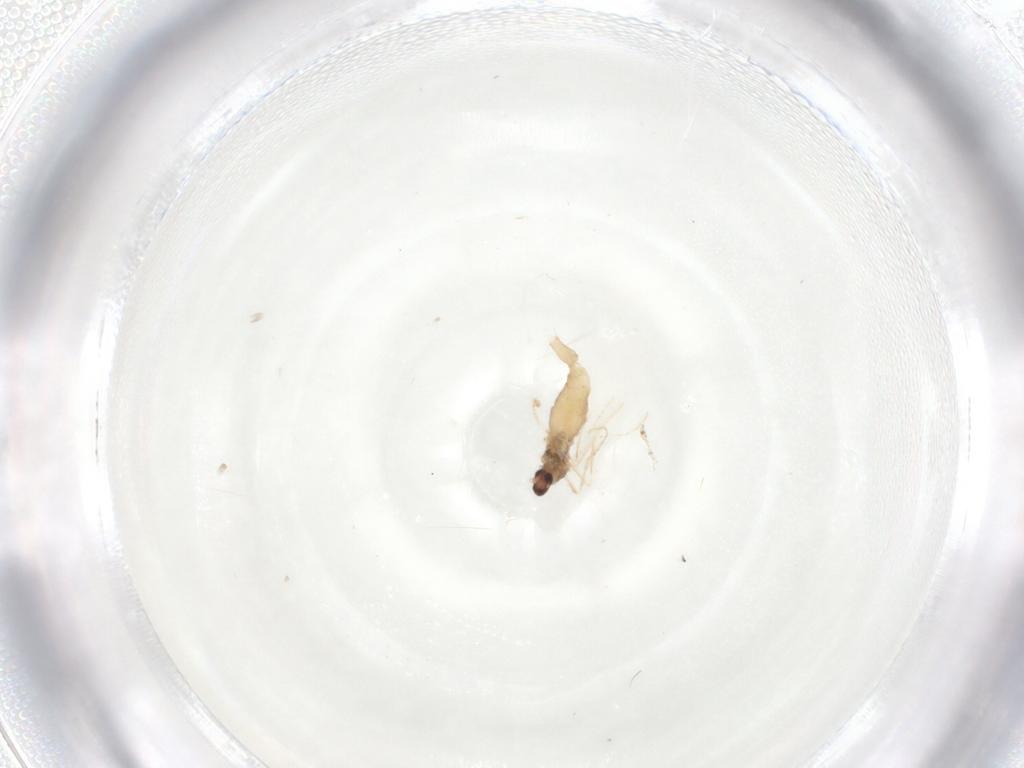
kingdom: Animalia
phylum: Arthropoda
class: Insecta
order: Diptera
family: Cecidomyiidae
